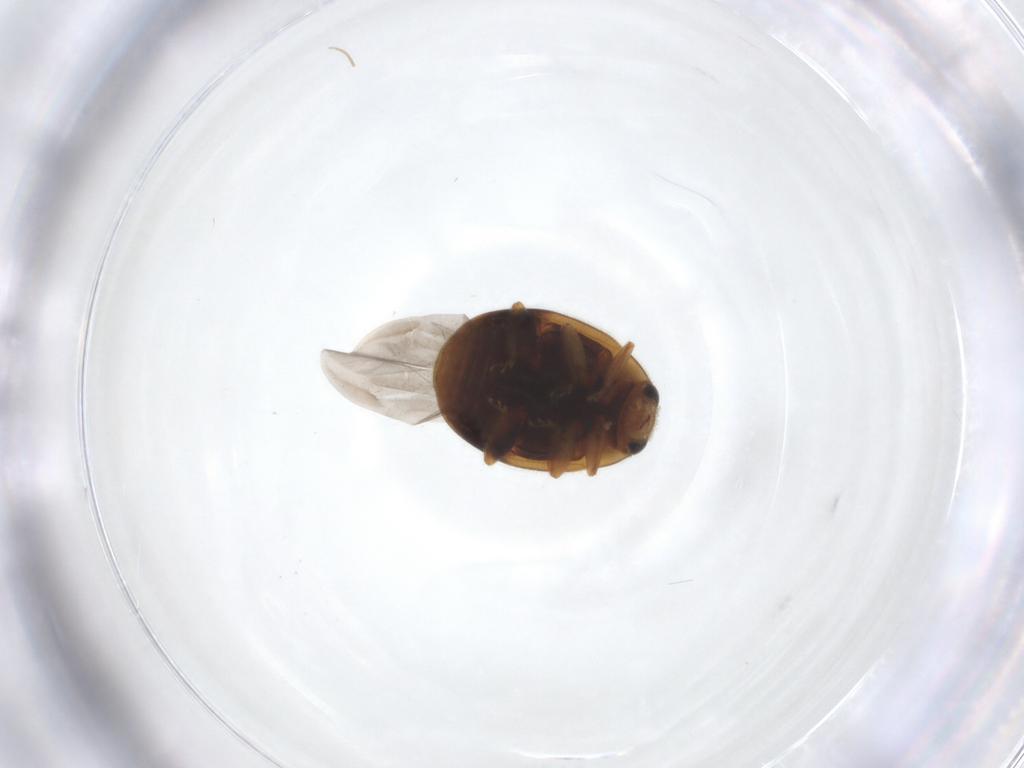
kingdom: Animalia
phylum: Arthropoda
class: Insecta
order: Coleoptera
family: Coccinellidae
